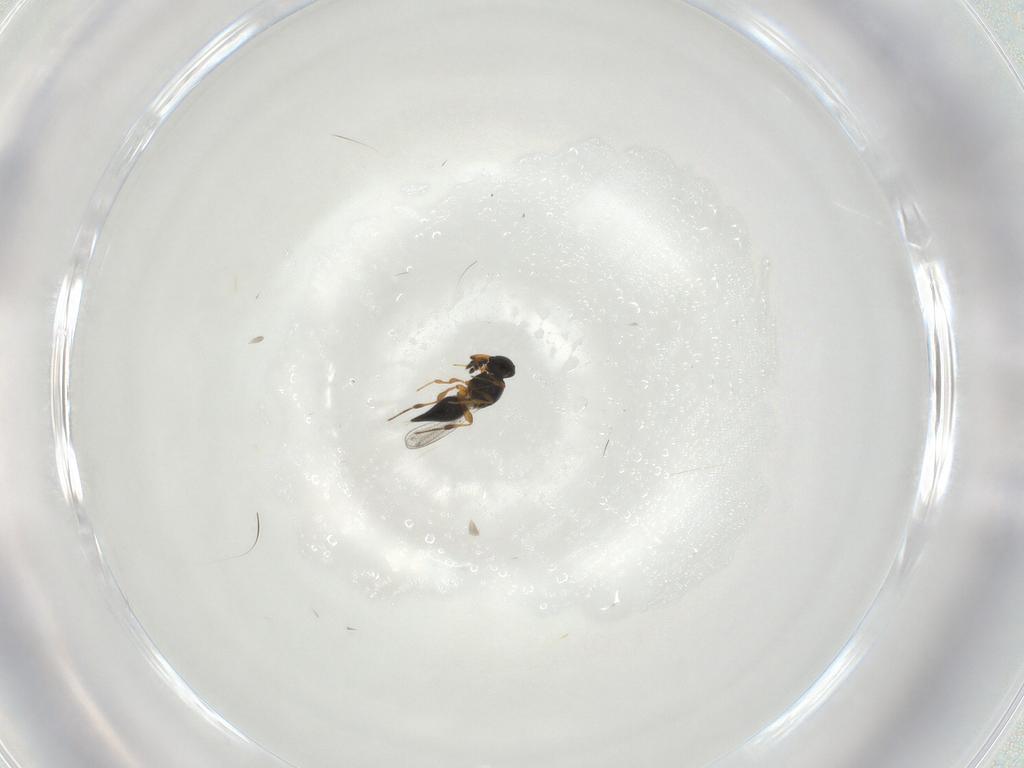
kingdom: Animalia
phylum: Arthropoda
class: Insecta
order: Hymenoptera
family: Platygastridae
